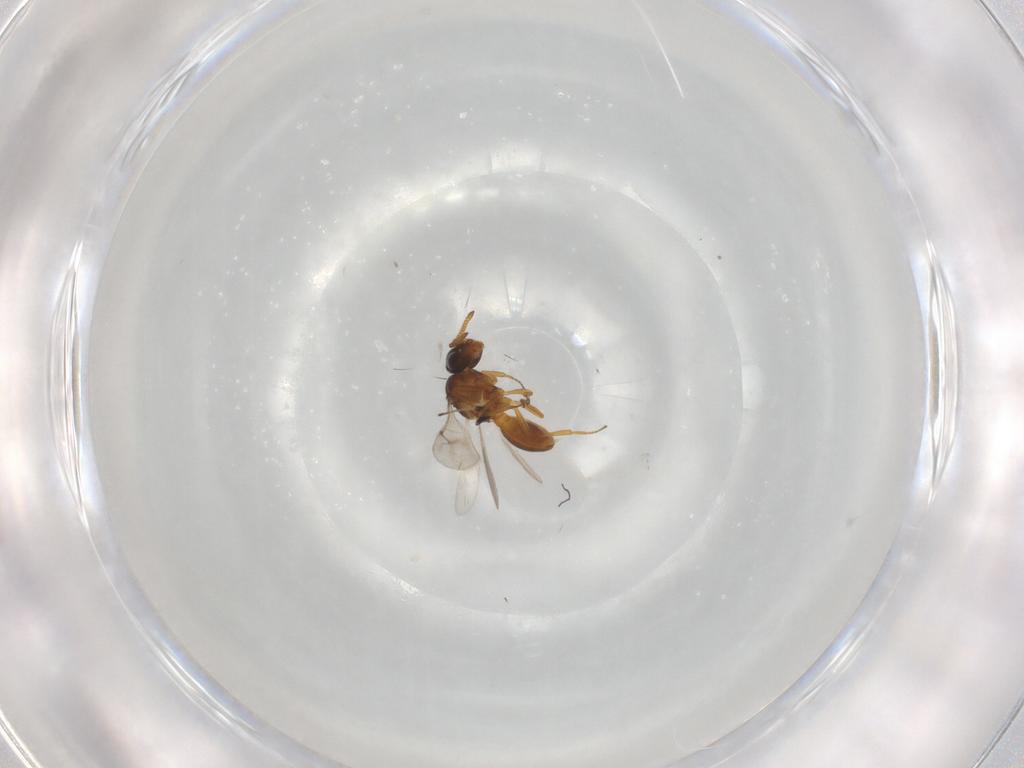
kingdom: Animalia
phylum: Arthropoda
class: Insecta
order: Hymenoptera
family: Scelionidae
